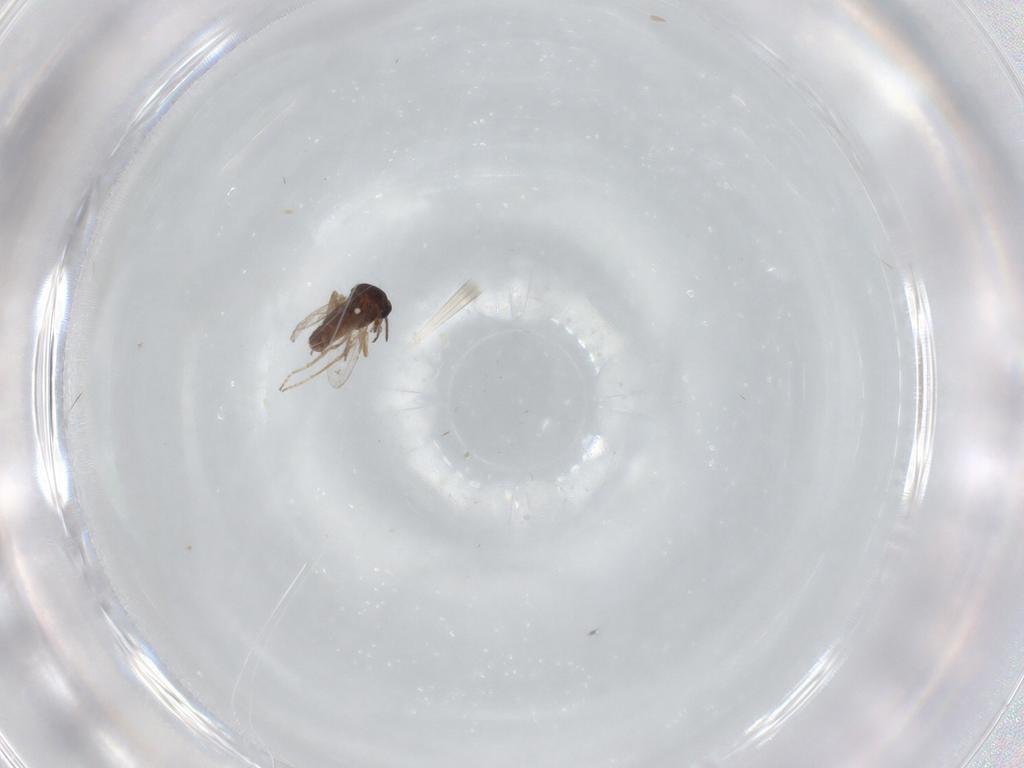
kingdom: Animalia
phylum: Arthropoda
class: Insecta
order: Diptera
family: Ceratopogonidae
